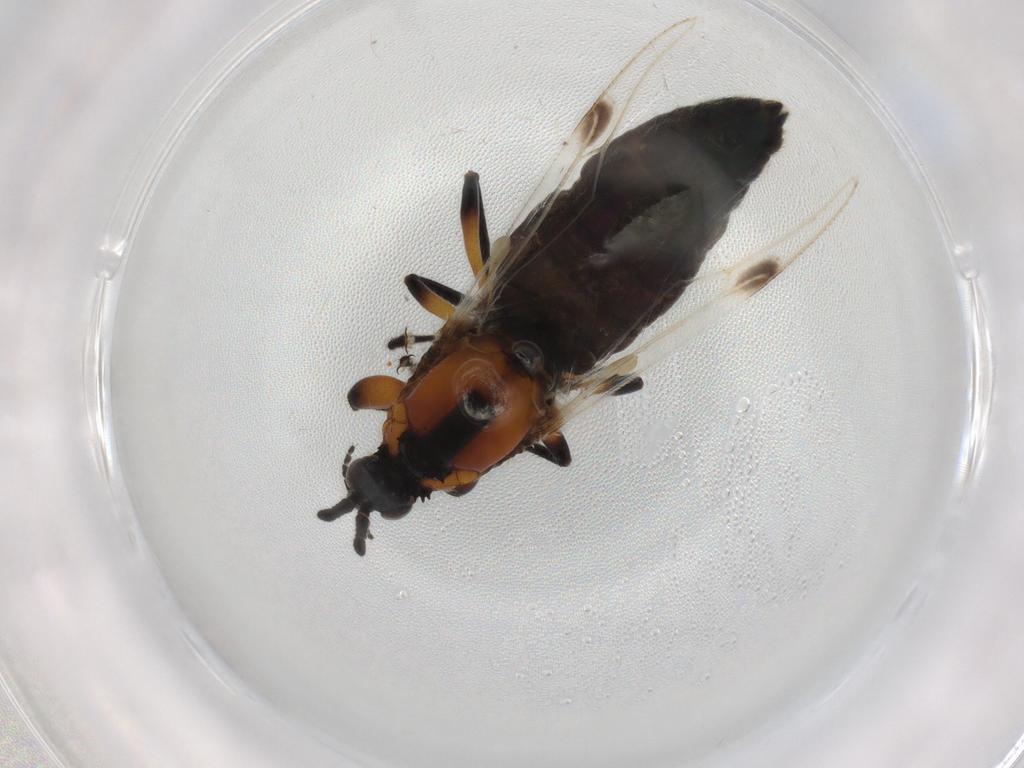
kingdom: Animalia
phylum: Arthropoda
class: Insecta
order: Diptera
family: Bibionidae
